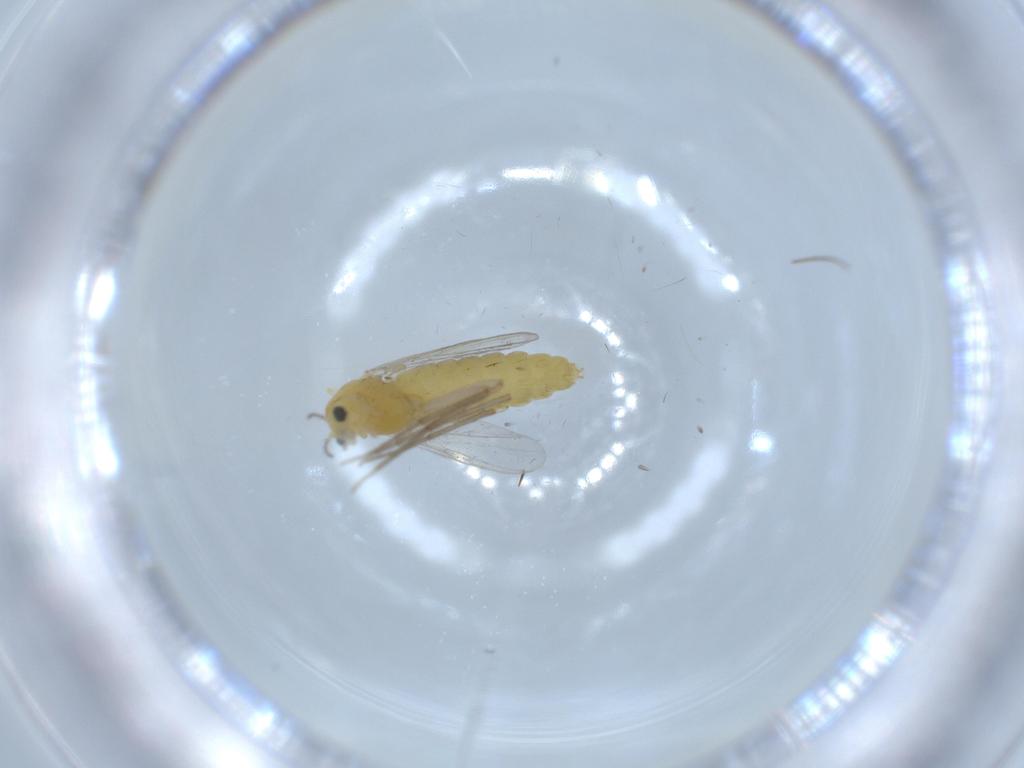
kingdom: Animalia
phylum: Arthropoda
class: Insecta
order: Diptera
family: Chironomidae
